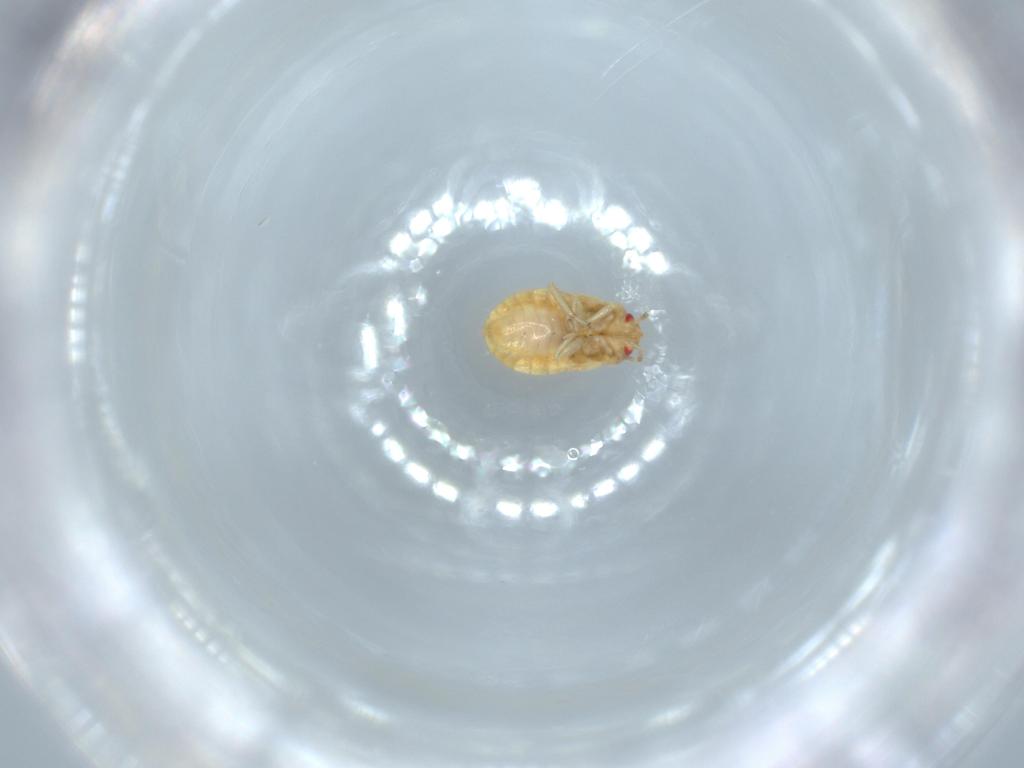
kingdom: Animalia
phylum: Arthropoda
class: Insecta
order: Hemiptera
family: Anthocoridae
